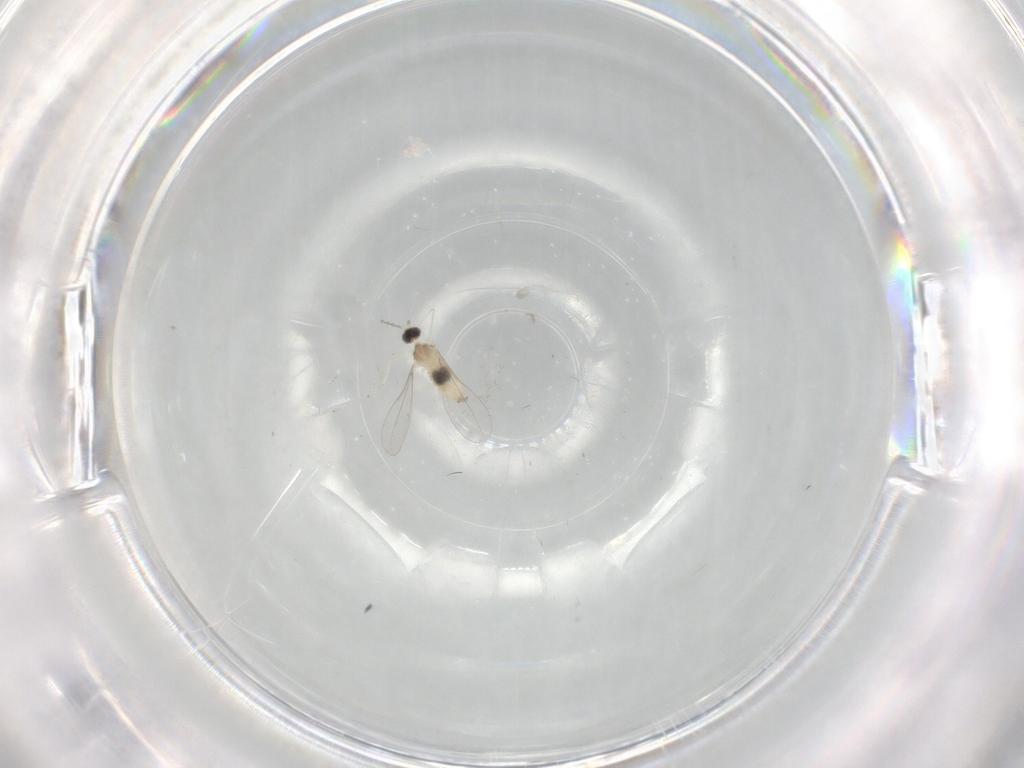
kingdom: Animalia
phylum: Arthropoda
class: Insecta
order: Diptera
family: Cecidomyiidae
